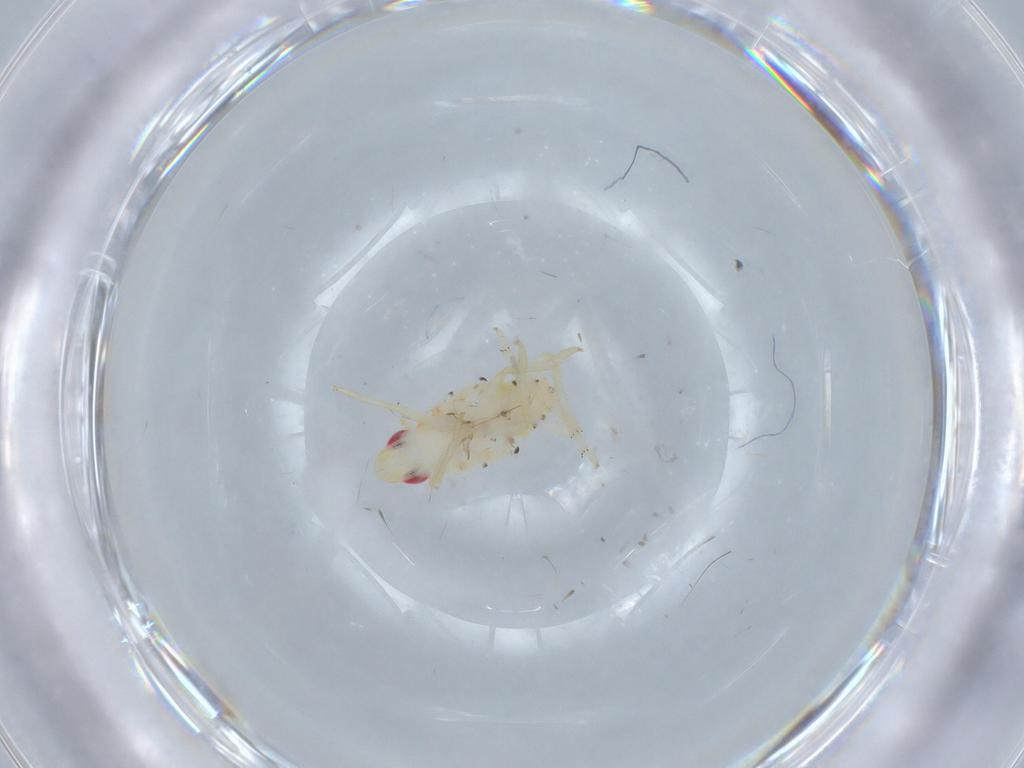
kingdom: Animalia
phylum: Arthropoda
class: Insecta
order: Hemiptera
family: Tropiduchidae
